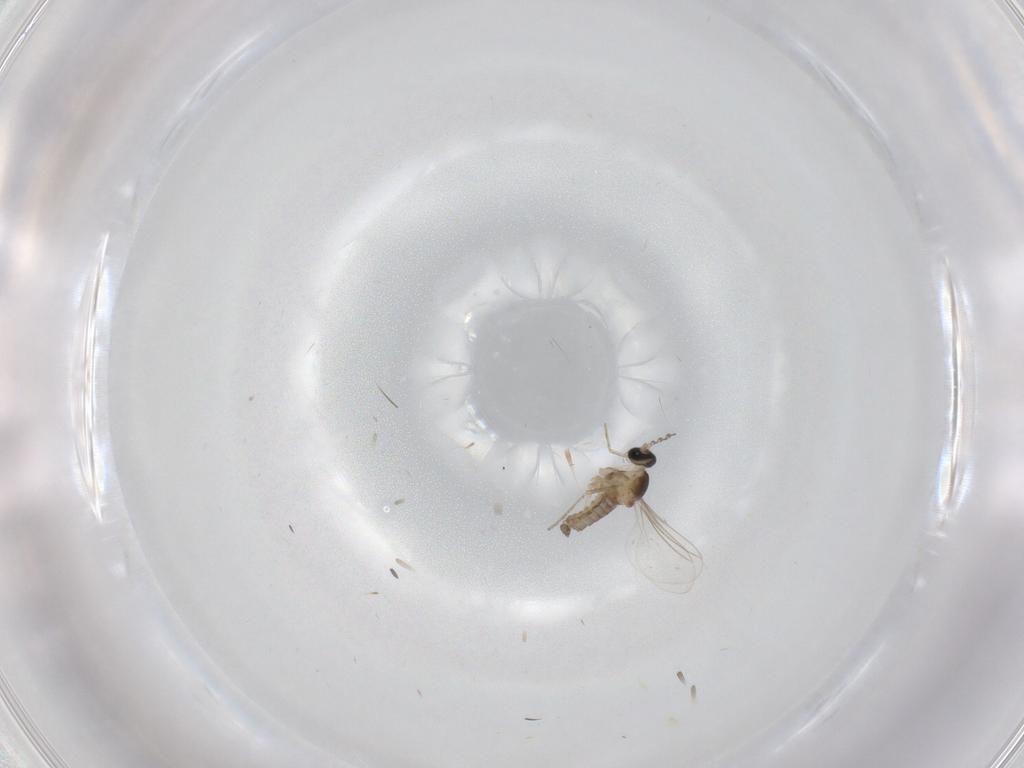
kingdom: Animalia
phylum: Arthropoda
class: Insecta
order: Diptera
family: Cecidomyiidae
